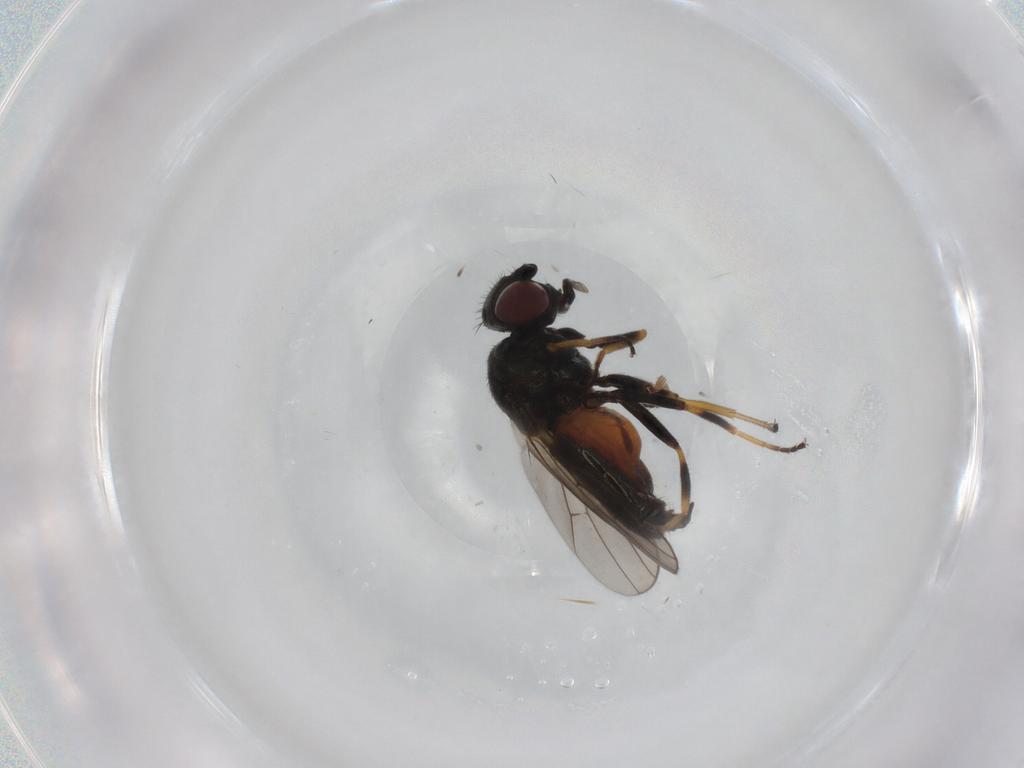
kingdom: Animalia
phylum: Arthropoda
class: Insecta
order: Diptera
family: Chloropidae
